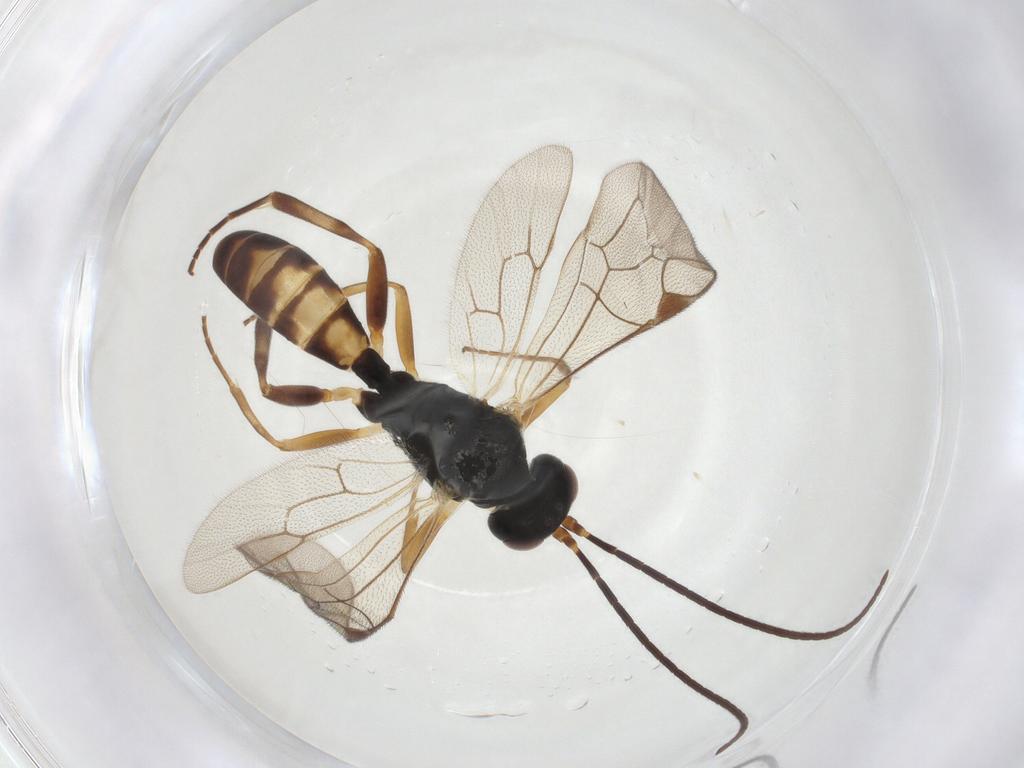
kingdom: Animalia
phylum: Arthropoda
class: Insecta
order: Hymenoptera
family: Ichneumonidae
